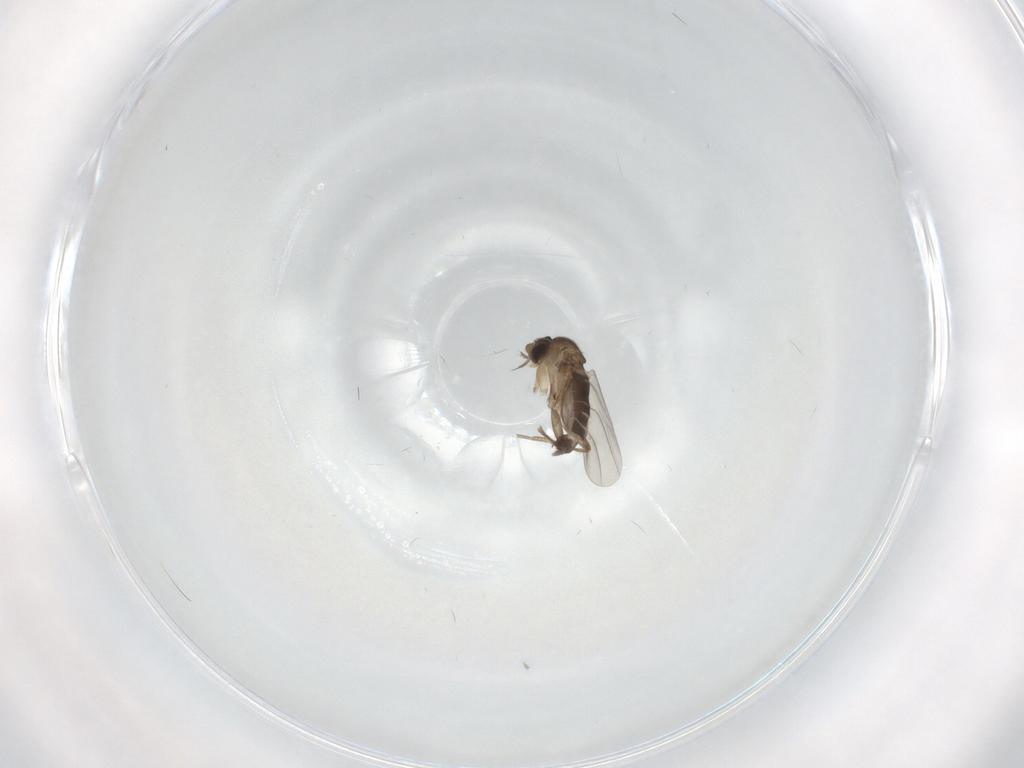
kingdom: Animalia
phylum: Arthropoda
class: Insecta
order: Diptera
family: Phoridae
